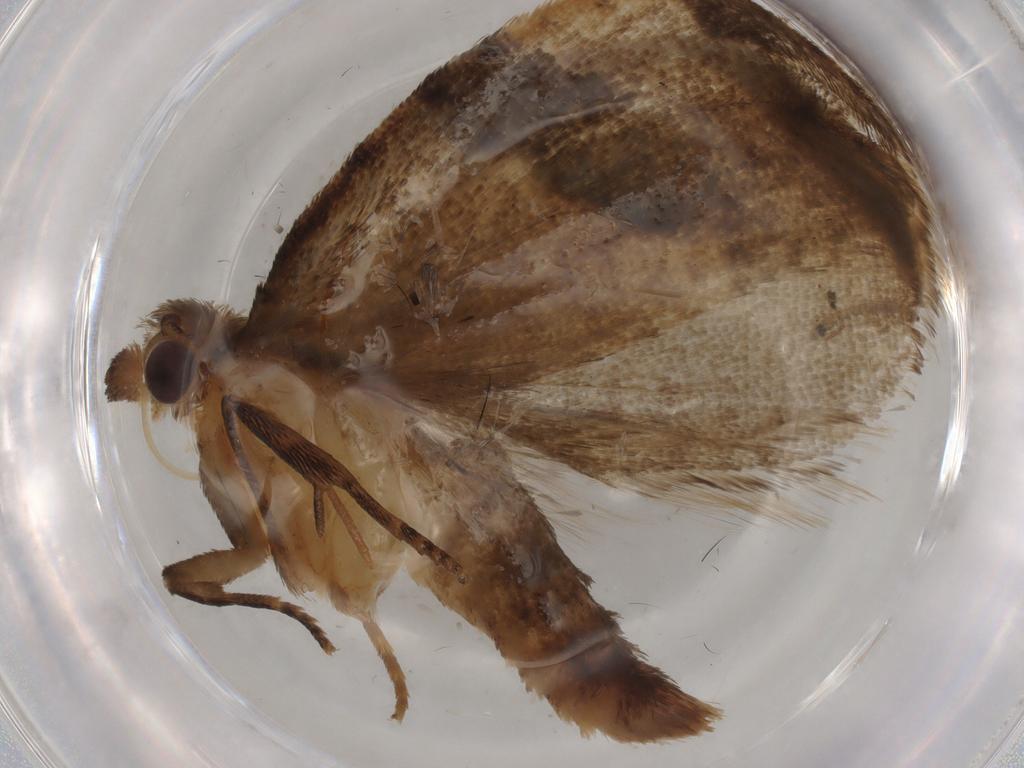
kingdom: Animalia
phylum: Arthropoda
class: Insecta
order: Lepidoptera
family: Tortricidae
